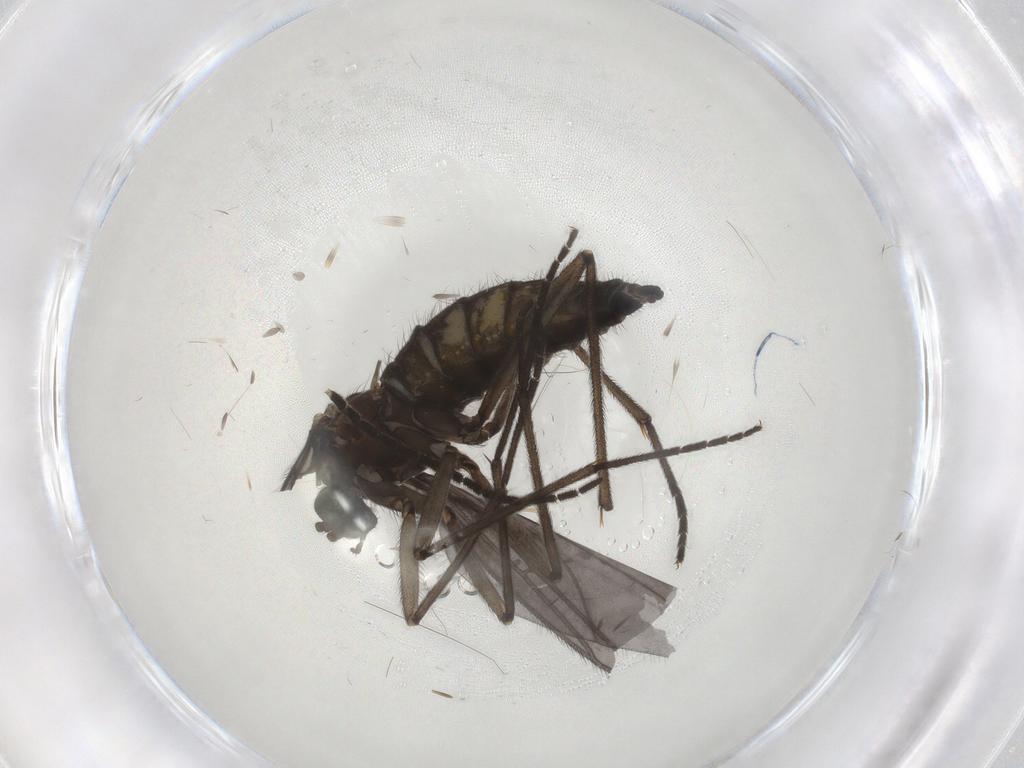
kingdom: Animalia
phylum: Arthropoda
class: Insecta
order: Diptera
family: Sciaridae
